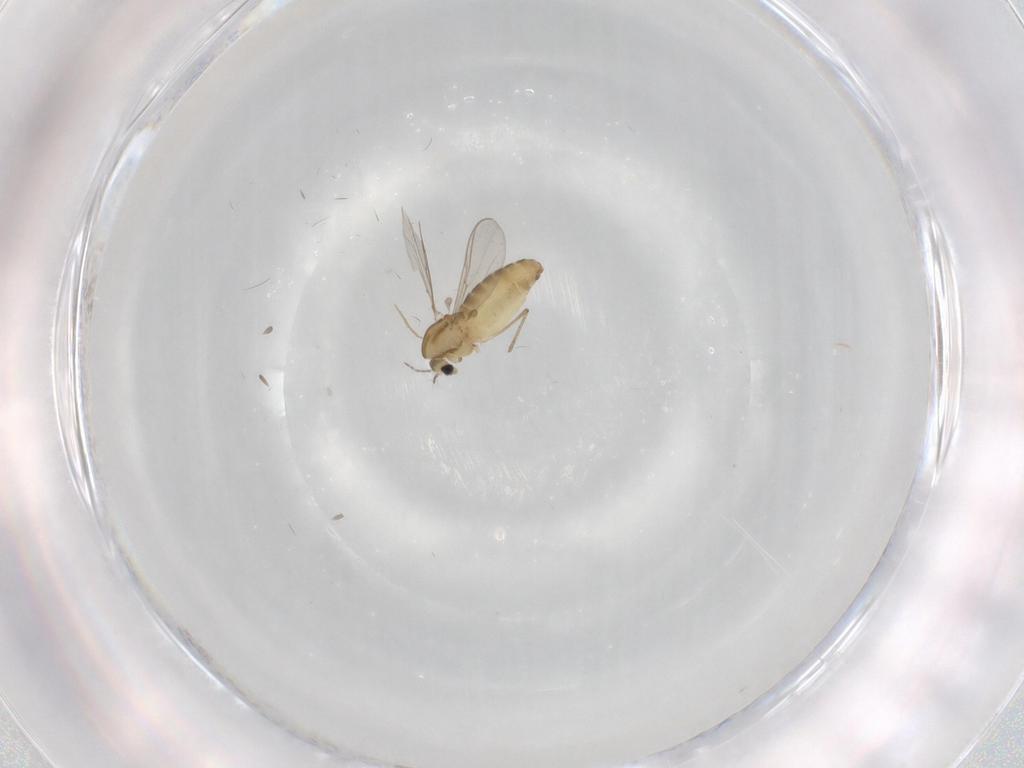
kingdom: Animalia
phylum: Arthropoda
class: Insecta
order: Diptera
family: Chironomidae
